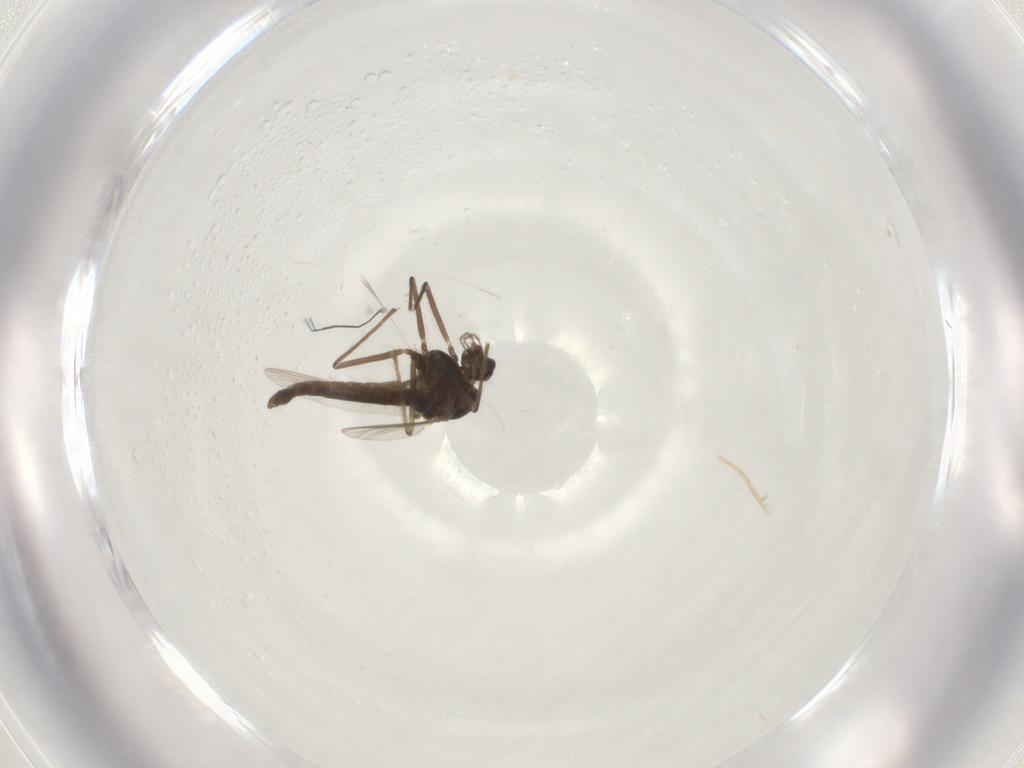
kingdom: Animalia
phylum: Arthropoda
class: Insecta
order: Diptera
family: Chironomidae
